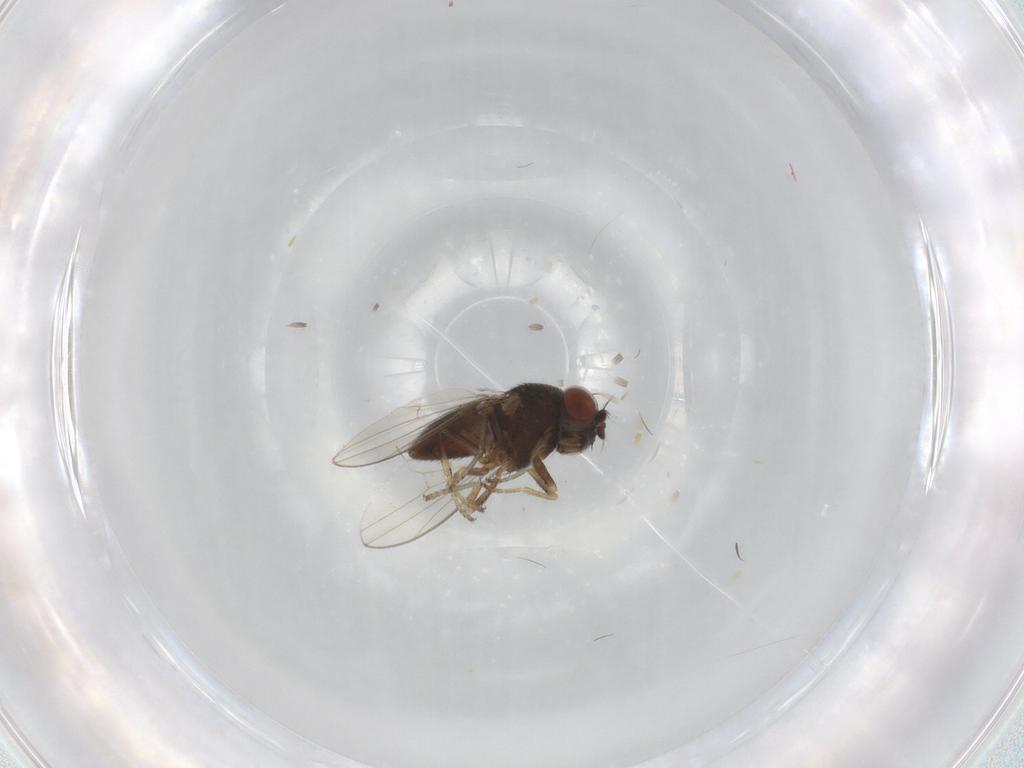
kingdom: Animalia
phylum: Arthropoda
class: Insecta
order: Diptera
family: Ephydridae
